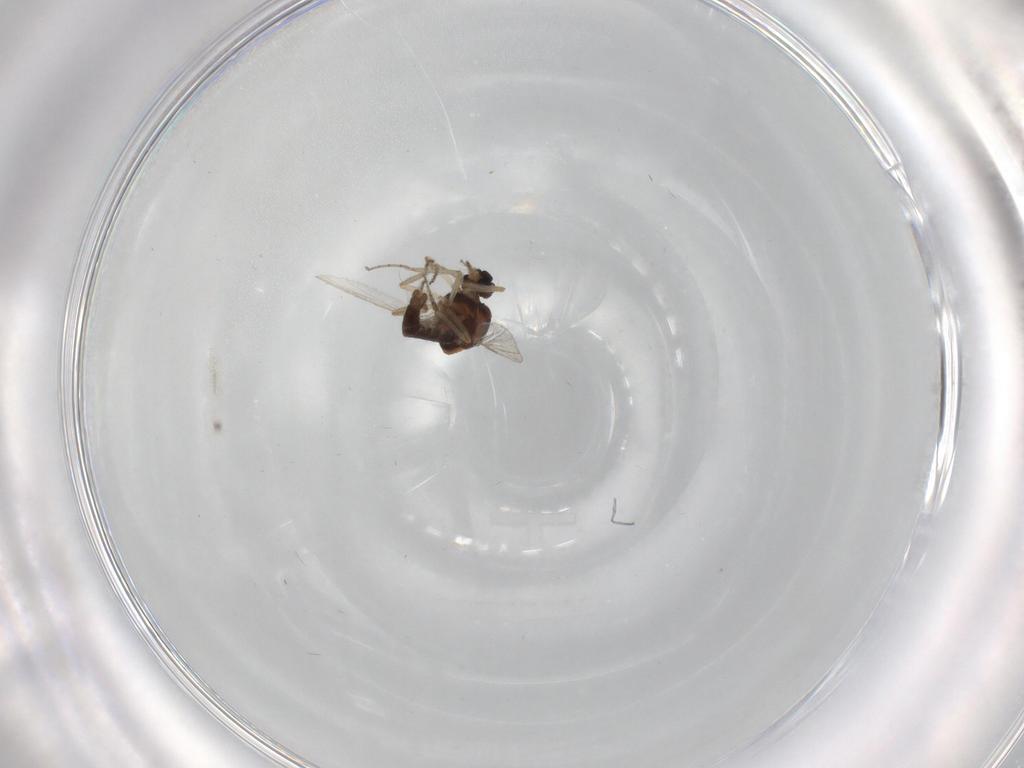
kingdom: Animalia
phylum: Arthropoda
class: Insecta
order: Diptera
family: Ceratopogonidae
